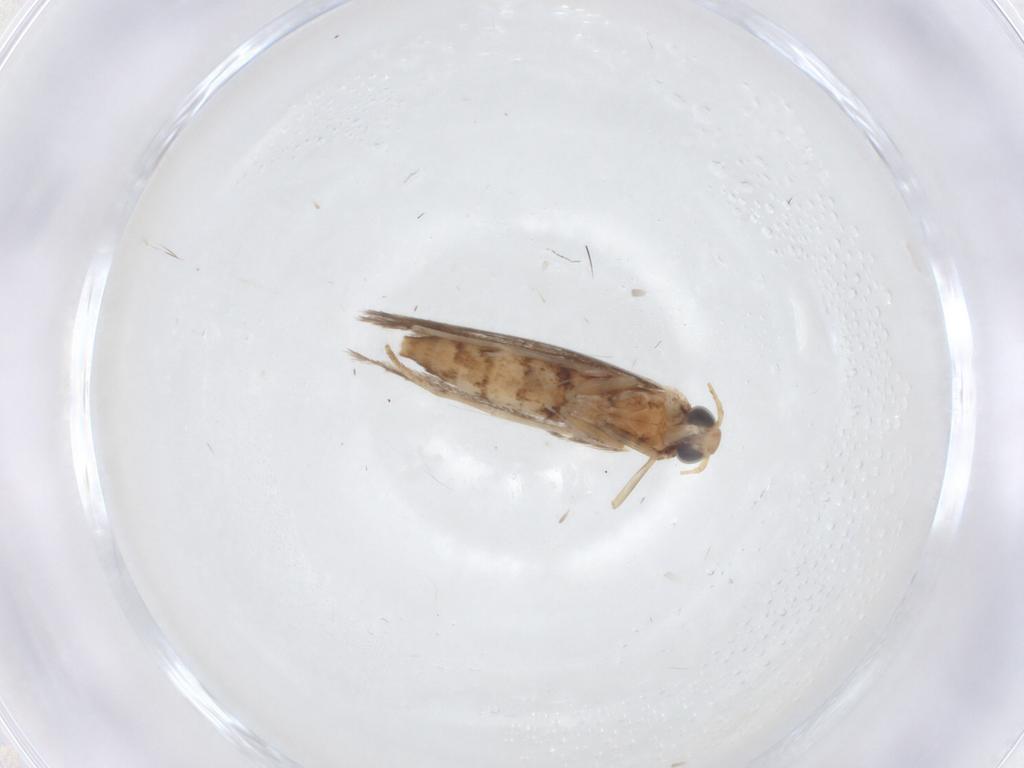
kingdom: Animalia
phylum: Arthropoda
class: Insecta
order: Lepidoptera
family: Gracillariidae
